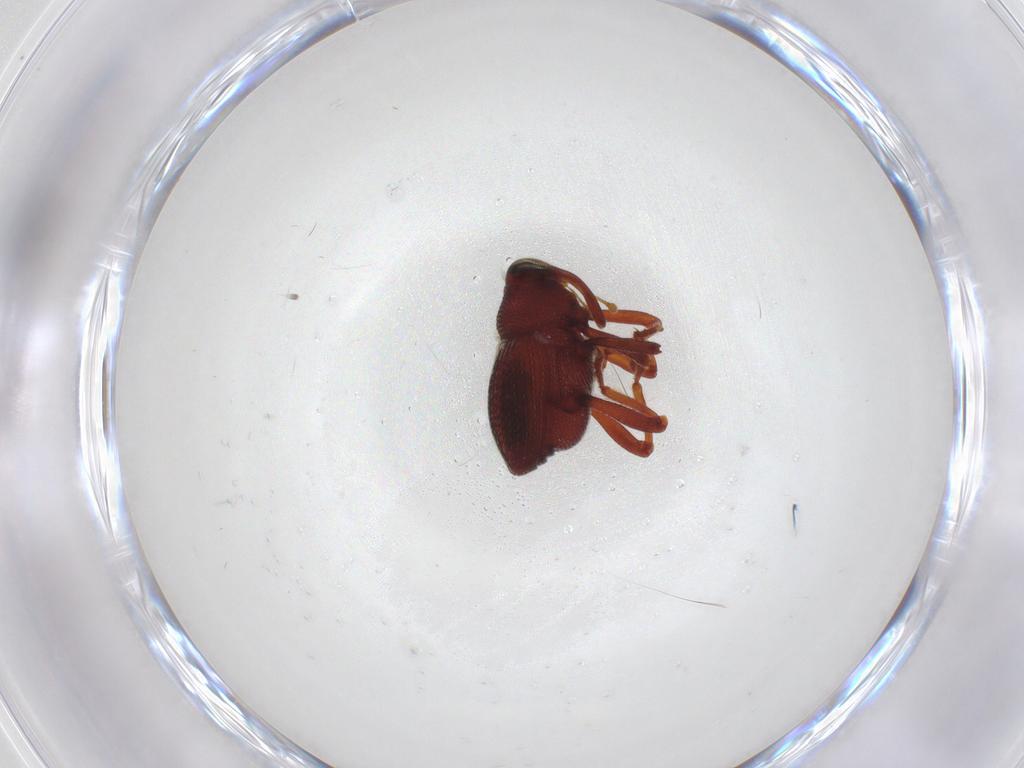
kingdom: Animalia
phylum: Arthropoda
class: Insecta
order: Coleoptera
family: Curculionidae
